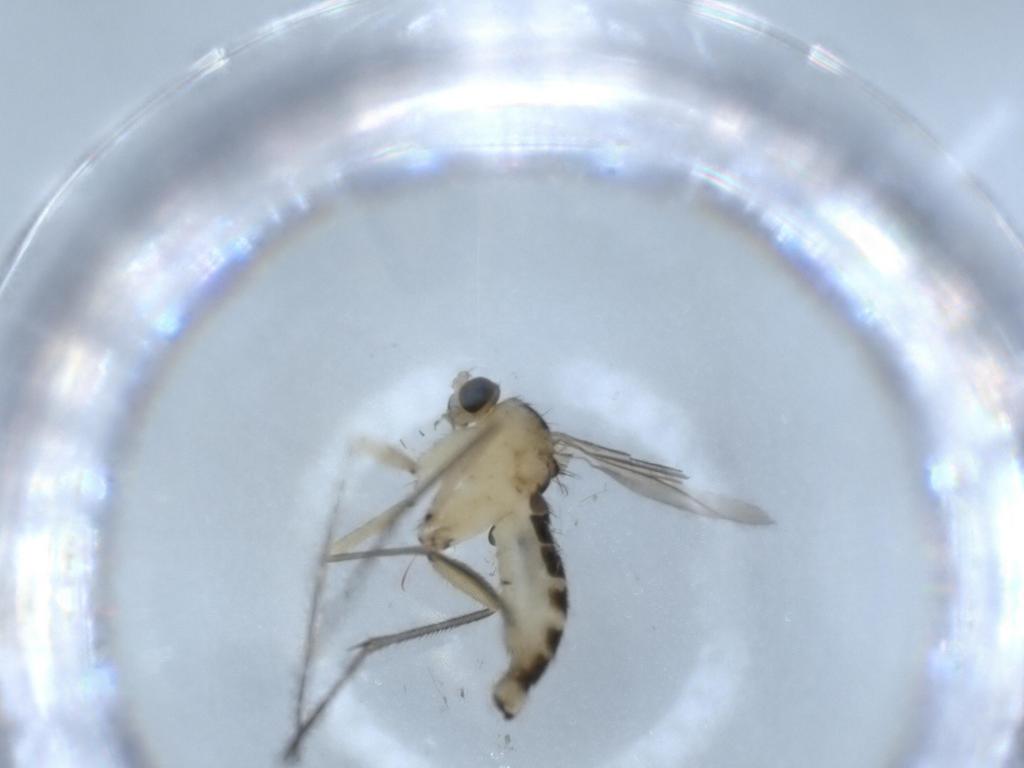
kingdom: Animalia
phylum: Arthropoda
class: Insecta
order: Diptera
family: Sciaridae
